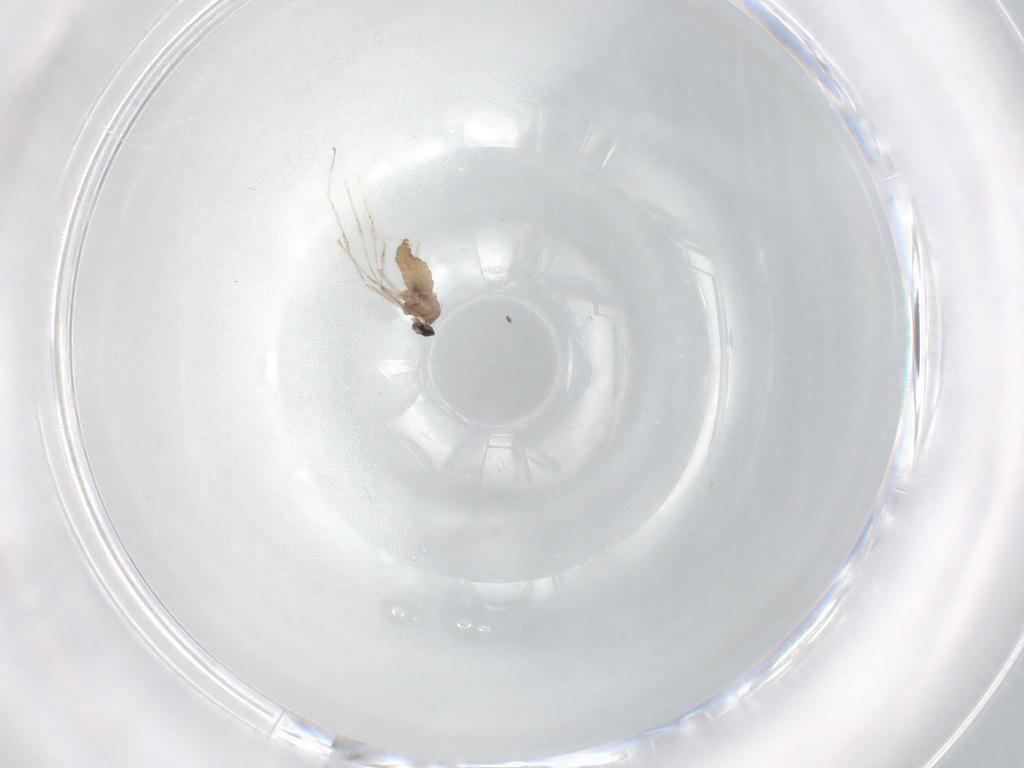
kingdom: Animalia
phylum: Arthropoda
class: Insecta
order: Diptera
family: Cecidomyiidae
